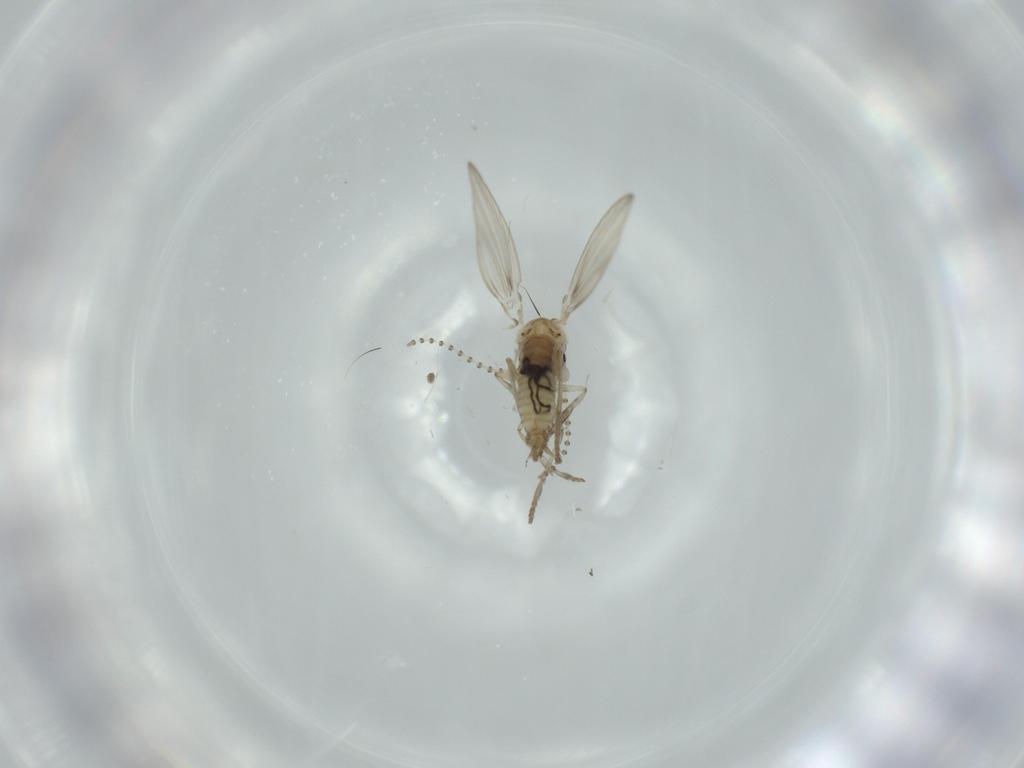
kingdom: Animalia
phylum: Arthropoda
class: Insecta
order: Diptera
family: Psychodidae
